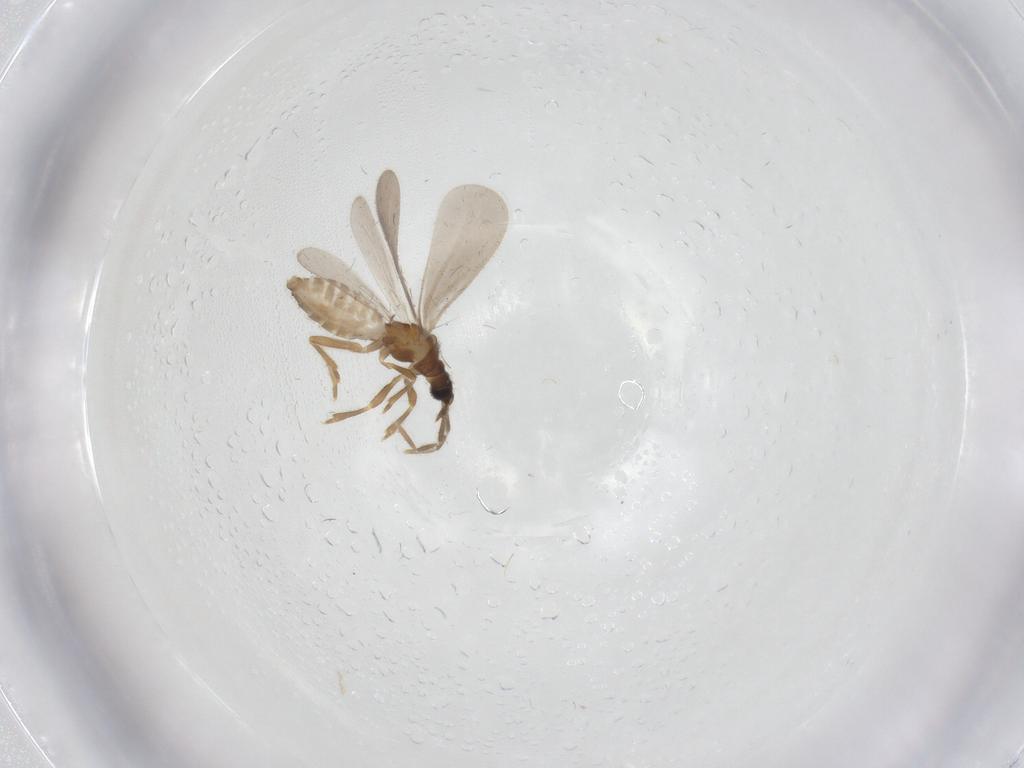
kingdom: Animalia
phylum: Arthropoda
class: Insecta
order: Hemiptera
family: Enicocephalidae
